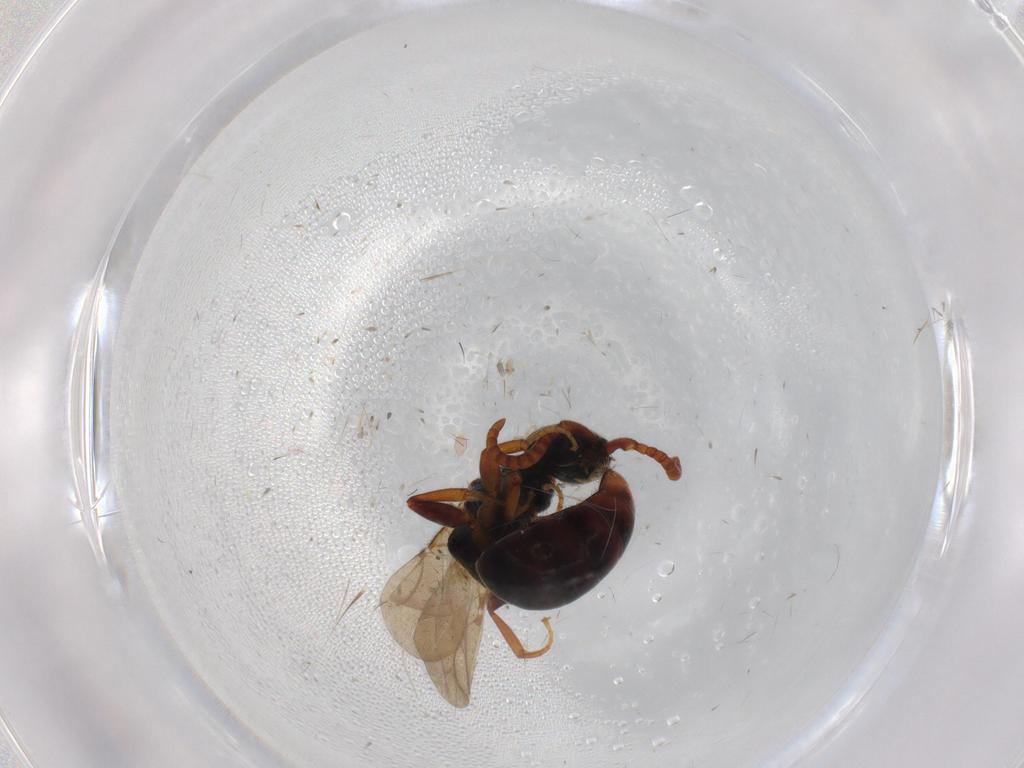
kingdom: Animalia
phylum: Arthropoda
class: Insecta
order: Hymenoptera
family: Bethylidae
